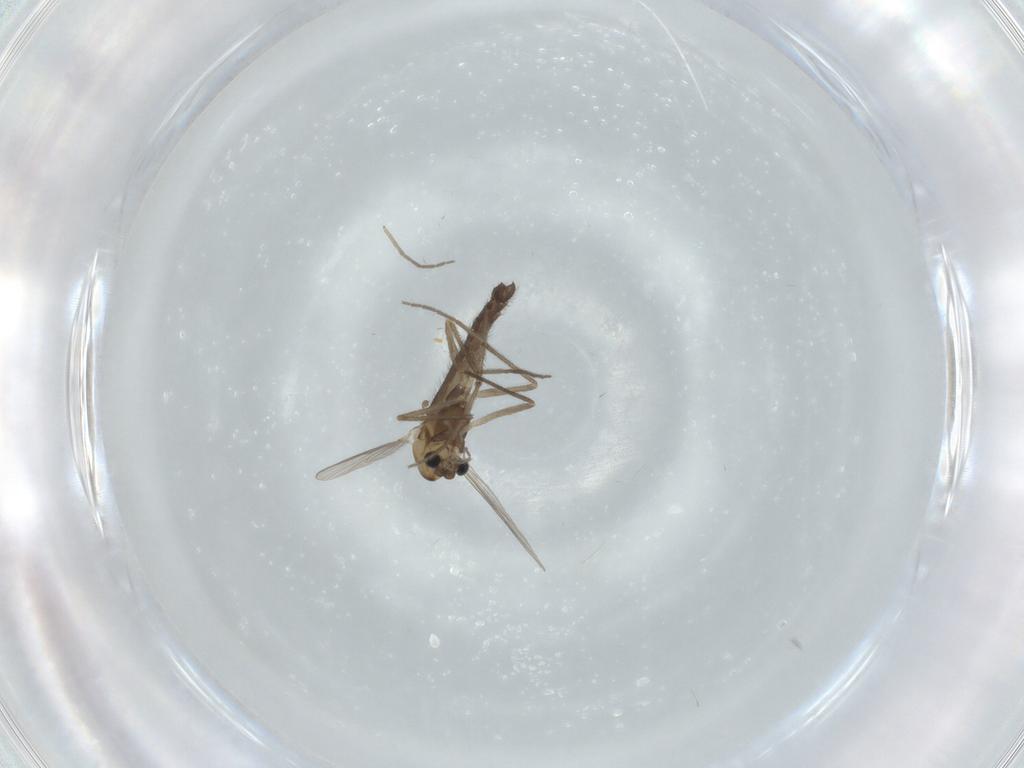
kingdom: Animalia
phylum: Arthropoda
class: Insecta
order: Diptera
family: Chironomidae
